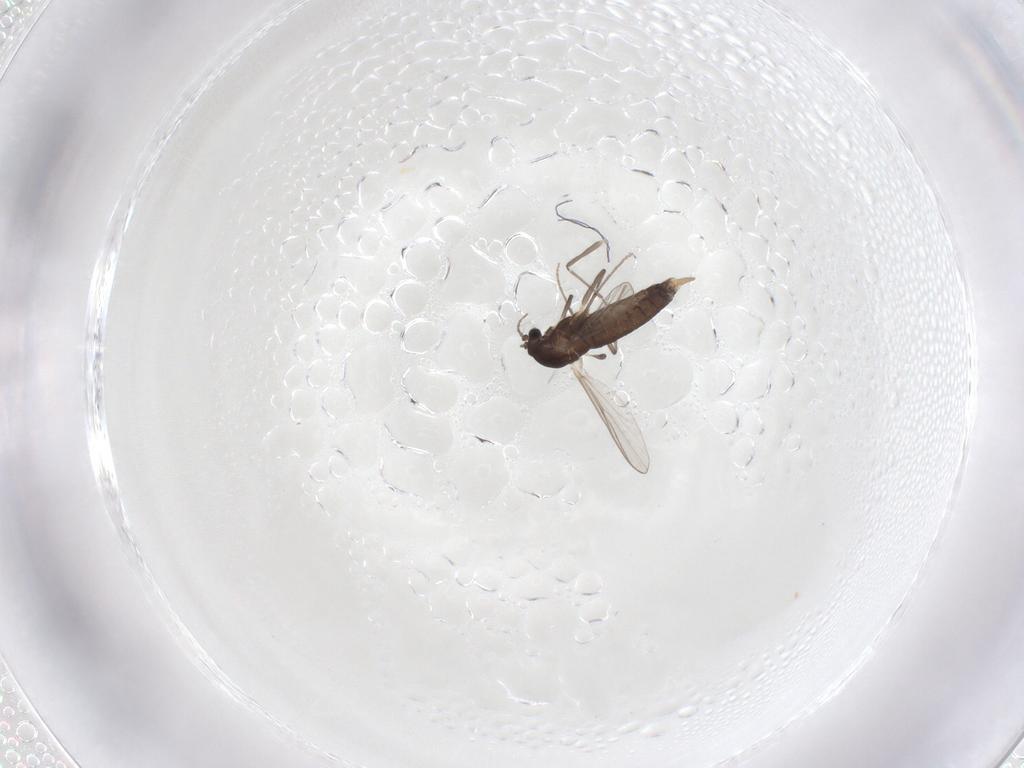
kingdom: Animalia
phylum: Arthropoda
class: Insecta
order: Diptera
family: Chironomidae
